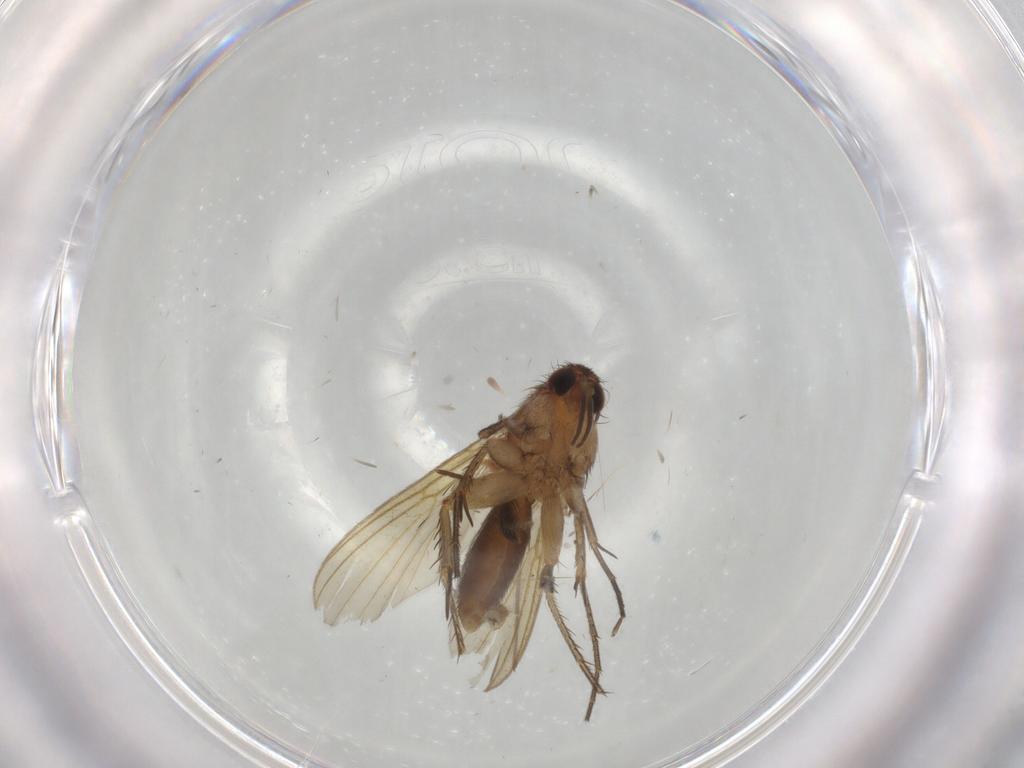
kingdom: Animalia
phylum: Arthropoda
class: Insecta
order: Diptera
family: Mycetophilidae
